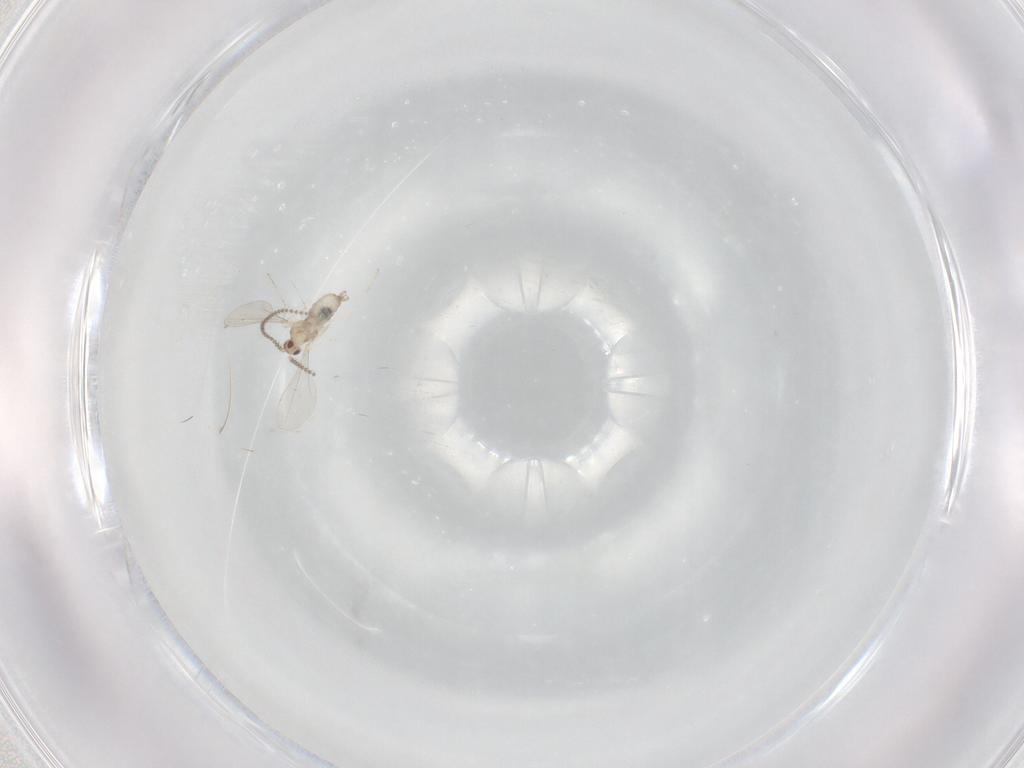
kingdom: Animalia
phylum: Arthropoda
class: Insecta
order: Diptera
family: Cecidomyiidae
